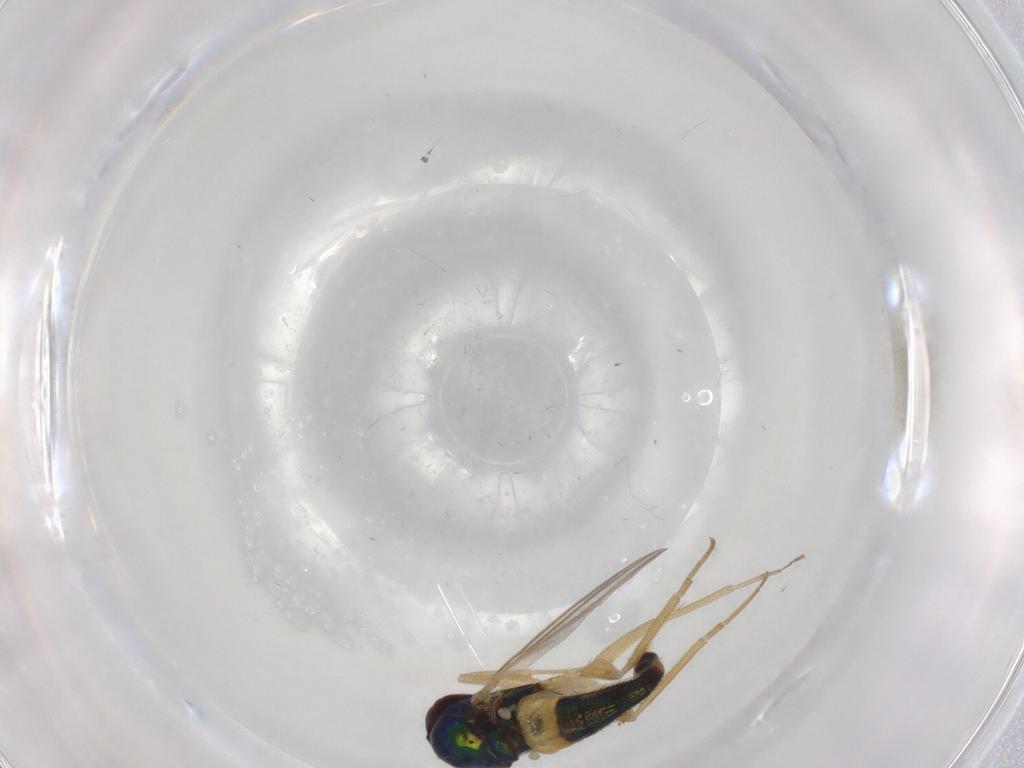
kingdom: Animalia
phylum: Arthropoda
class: Insecta
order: Diptera
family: Dolichopodidae
